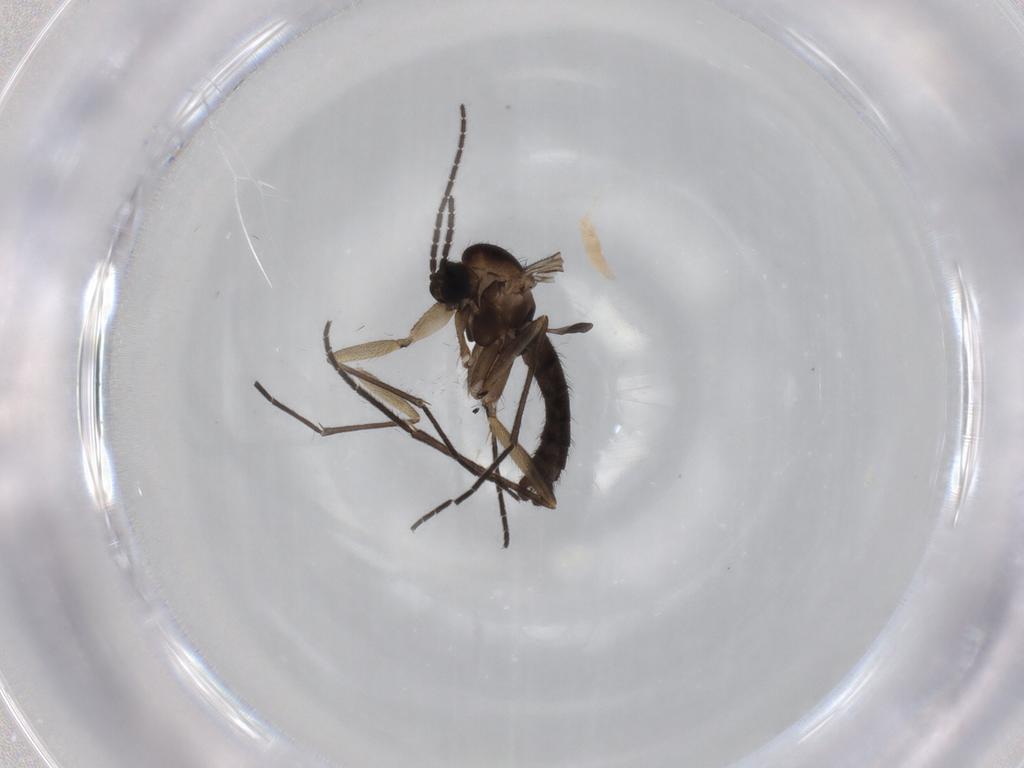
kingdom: Animalia
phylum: Arthropoda
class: Insecta
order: Diptera
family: Sciaridae
